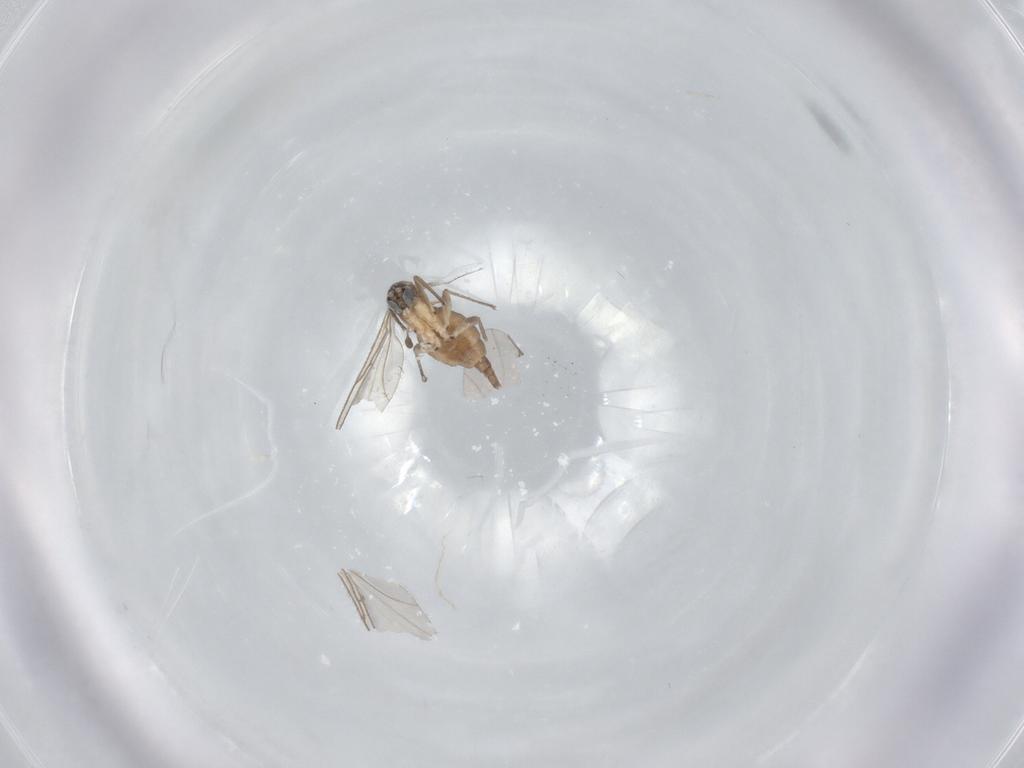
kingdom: Animalia
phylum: Arthropoda
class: Insecta
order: Diptera
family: Sciaridae
